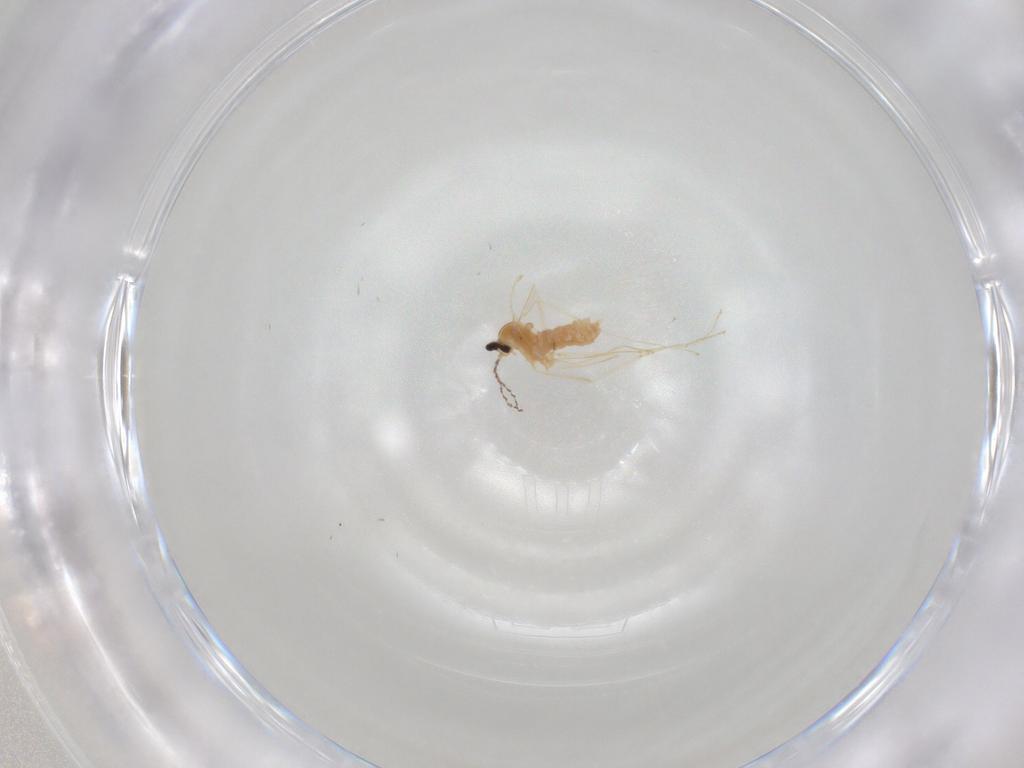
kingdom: Animalia
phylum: Arthropoda
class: Insecta
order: Diptera
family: Cecidomyiidae
